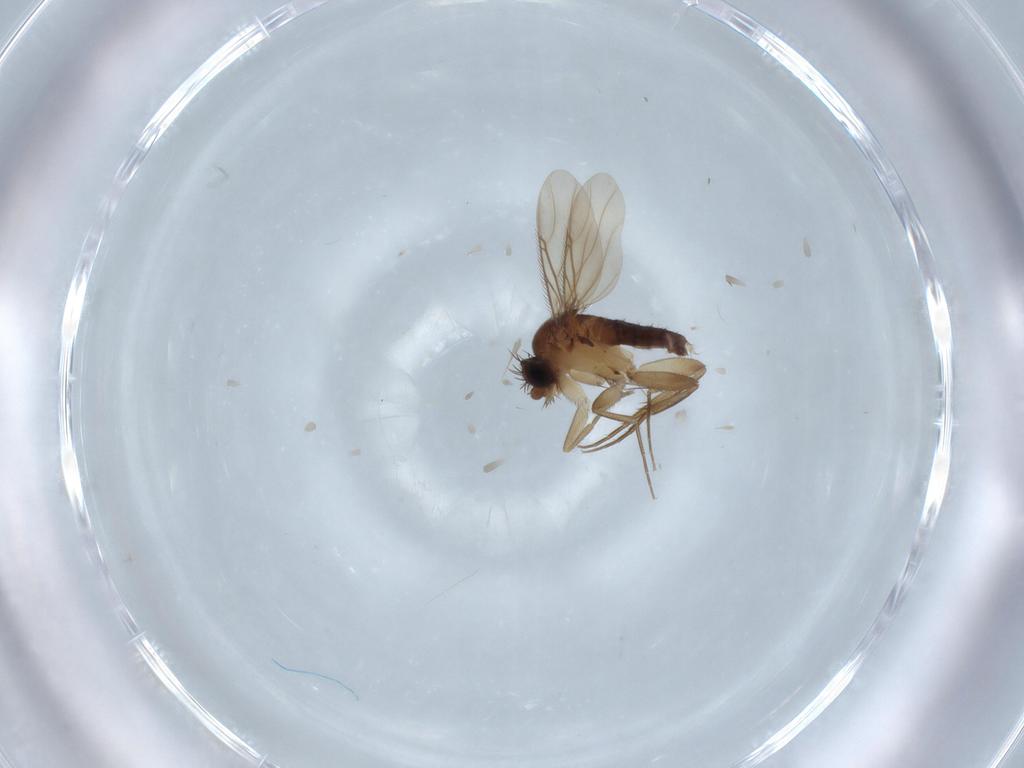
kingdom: Animalia
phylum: Arthropoda
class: Insecta
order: Diptera
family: Phoridae
